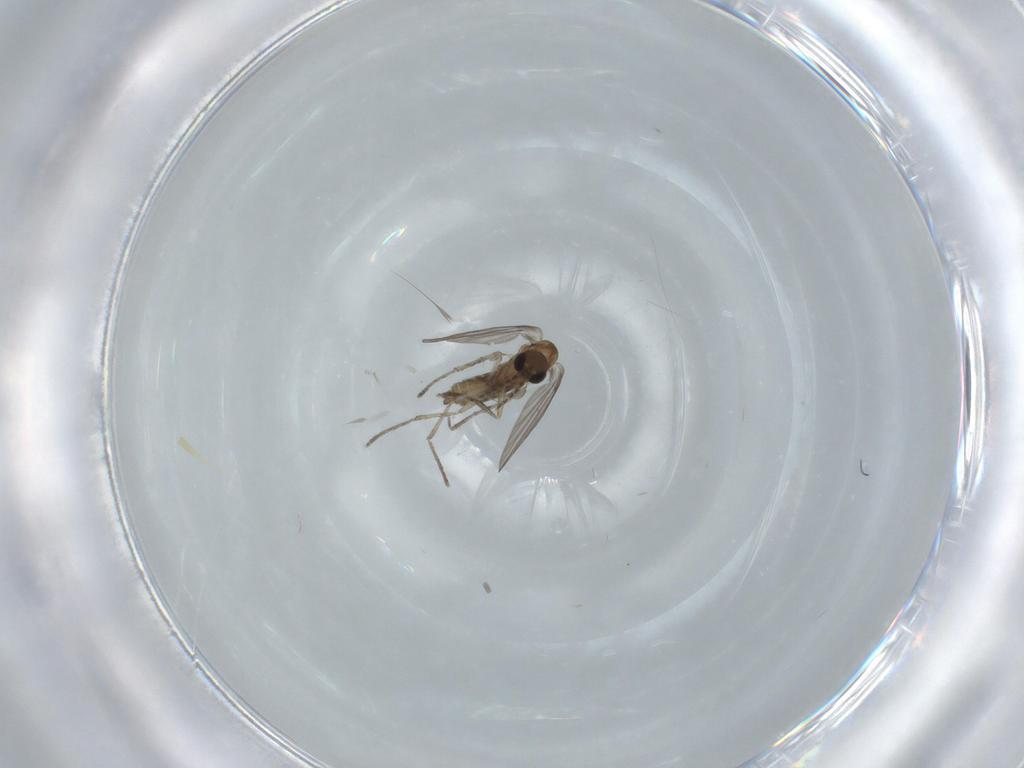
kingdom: Animalia
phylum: Arthropoda
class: Insecta
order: Diptera
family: Psychodidae
